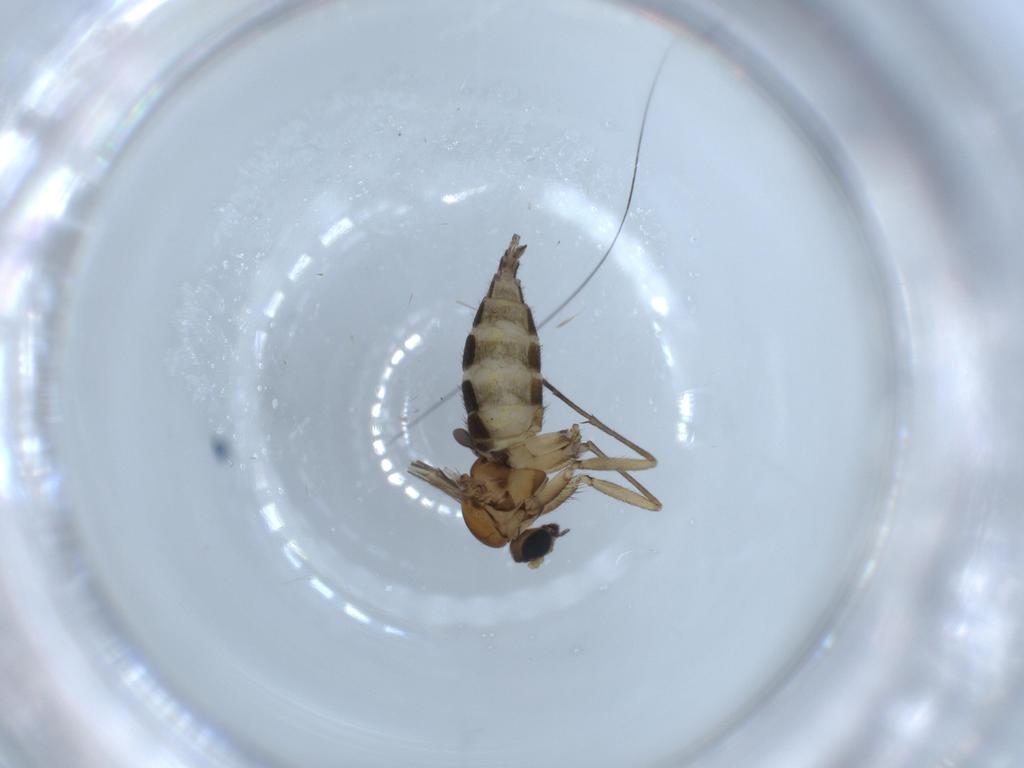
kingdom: Animalia
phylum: Arthropoda
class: Insecta
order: Diptera
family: Sciaridae
